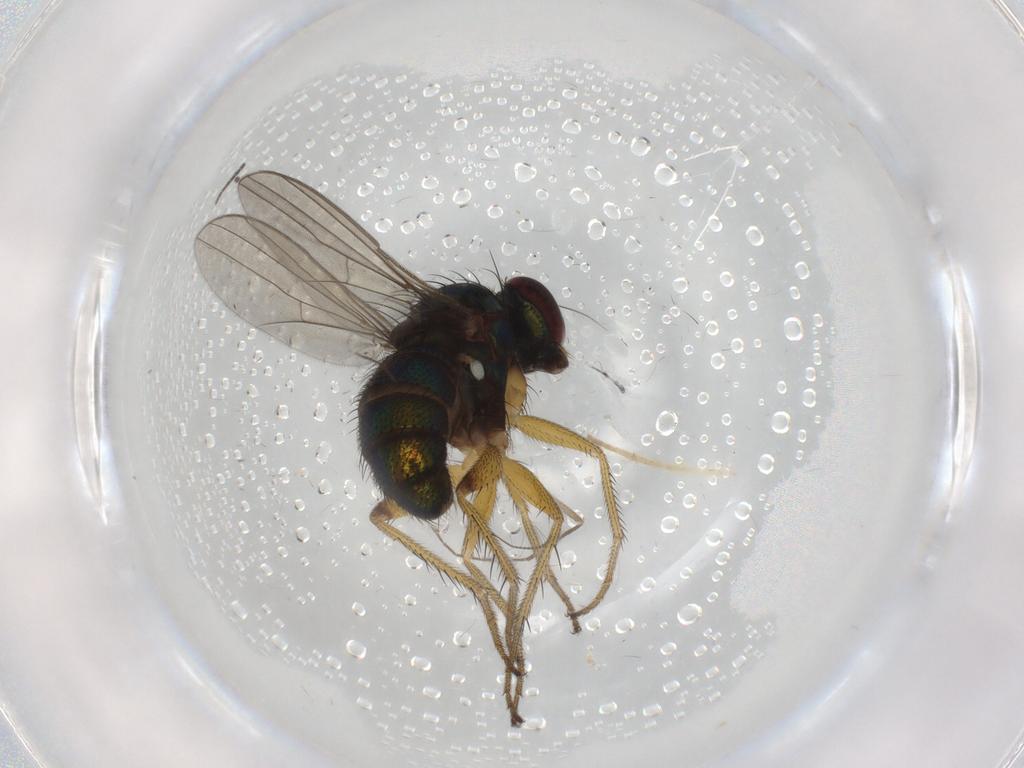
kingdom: Animalia
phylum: Arthropoda
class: Insecta
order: Diptera
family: Dolichopodidae
